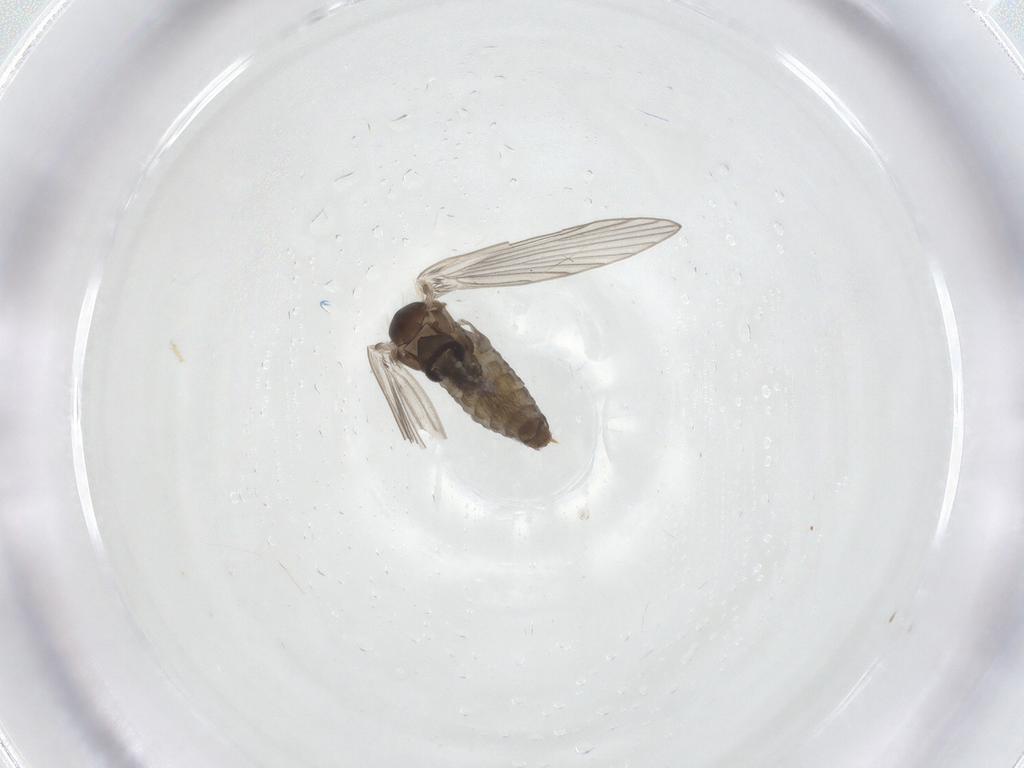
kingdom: Animalia
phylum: Arthropoda
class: Insecta
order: Diptera
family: Psychodidae
